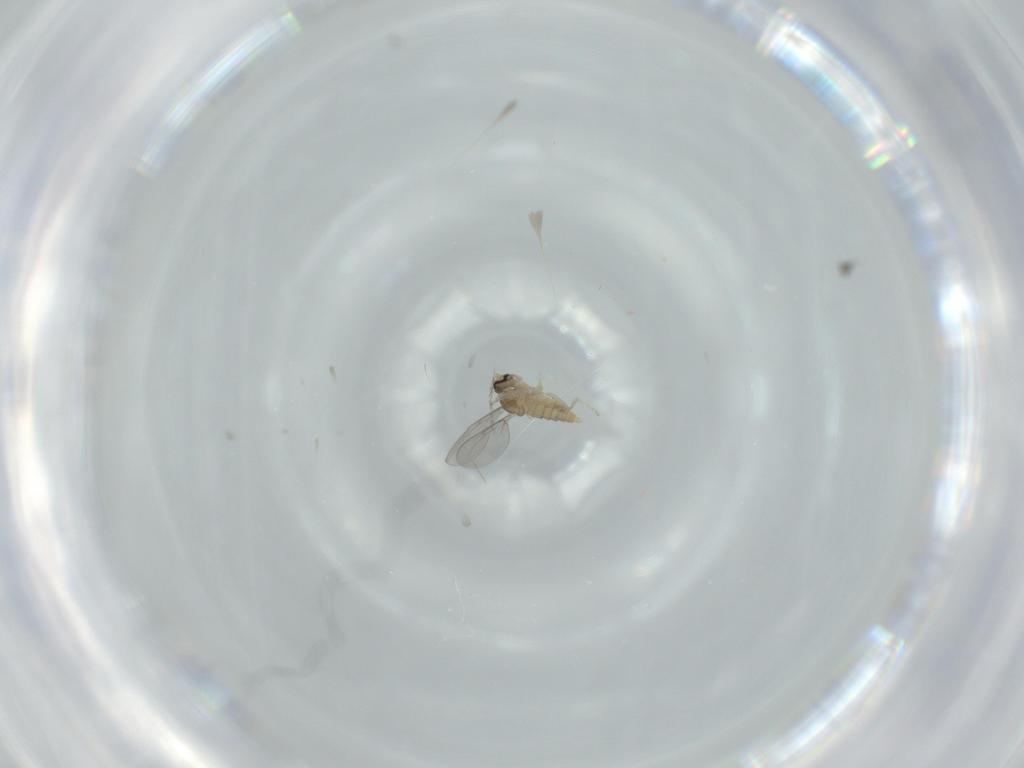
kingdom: Animalia
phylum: Arthropoda
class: Insecta
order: Diptera
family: Cecidomyiidae
